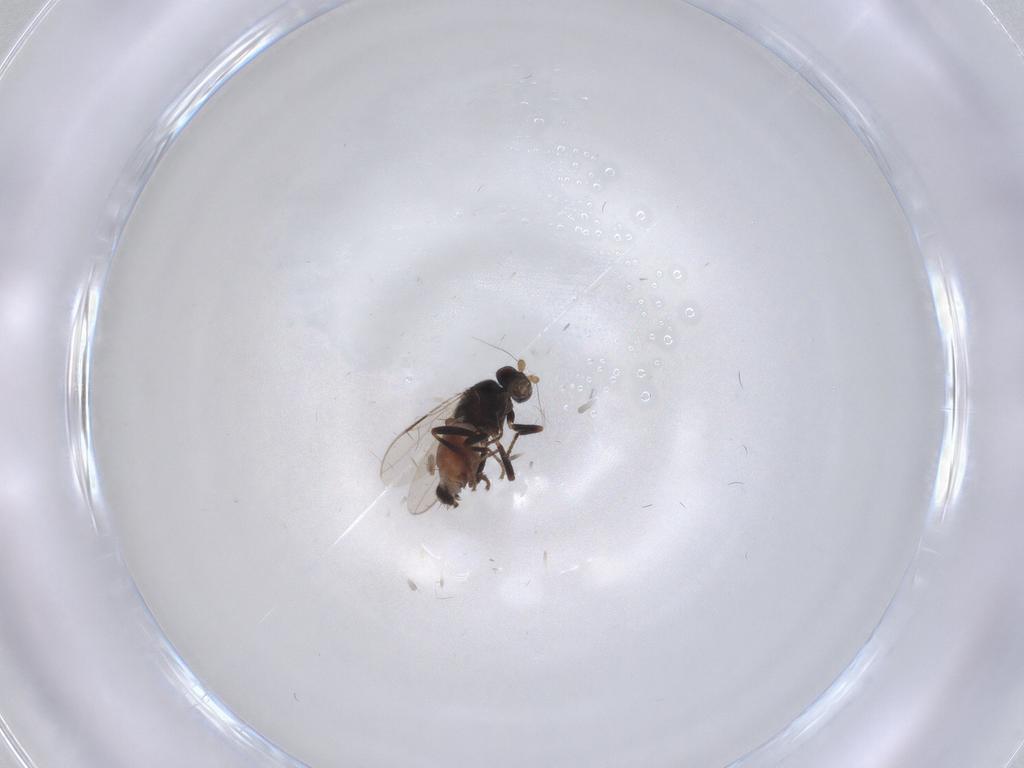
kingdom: Animalia
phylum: Arthropoda
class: Insecta
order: Diptera
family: Sphaeroceridae
